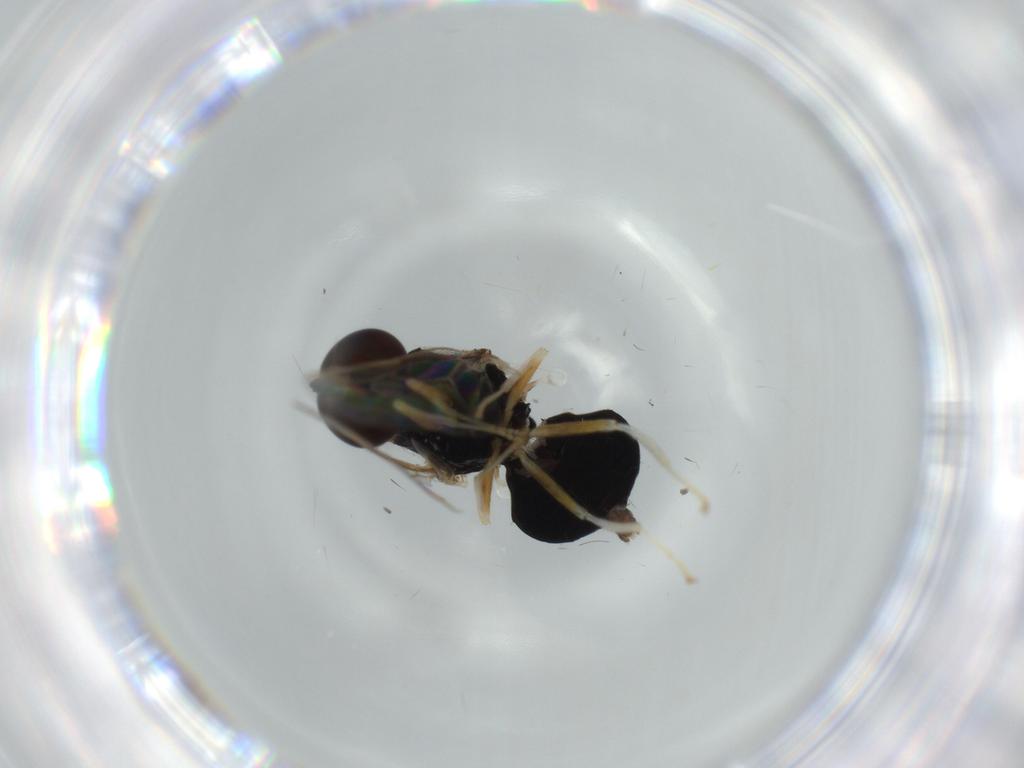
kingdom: Animalia
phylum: Arthropoda
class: Insecta
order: Diptera
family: Stratiomyidae
